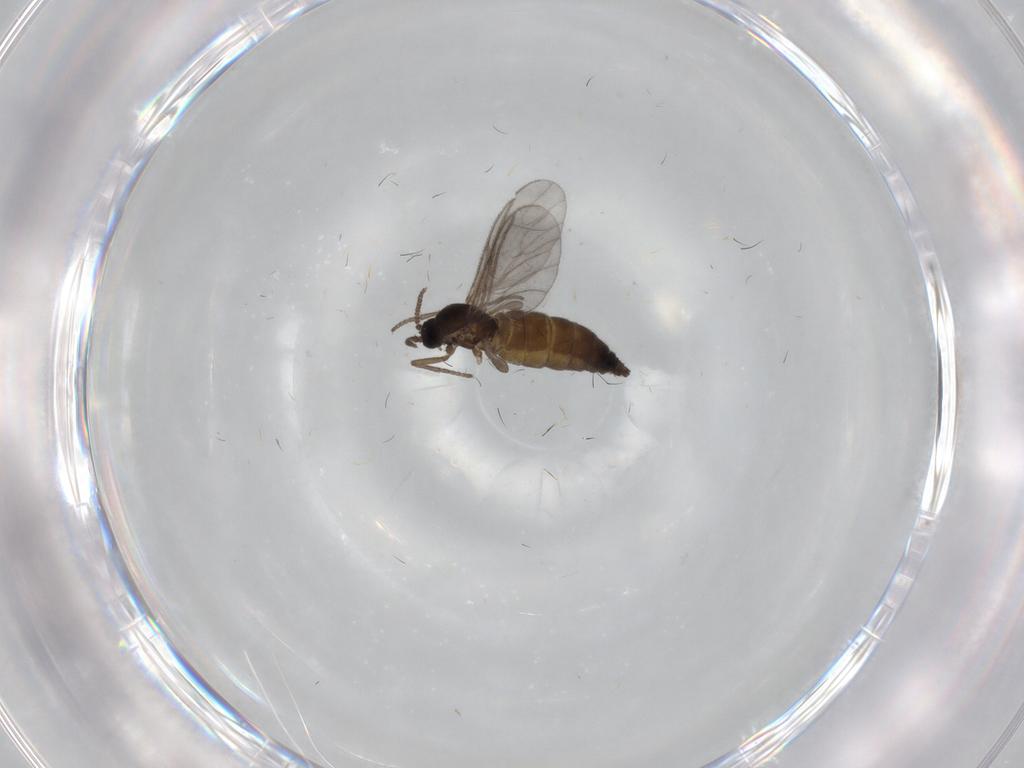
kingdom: Animalia
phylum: Arthropoda
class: Insecta
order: Diptera
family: Sciaridae
